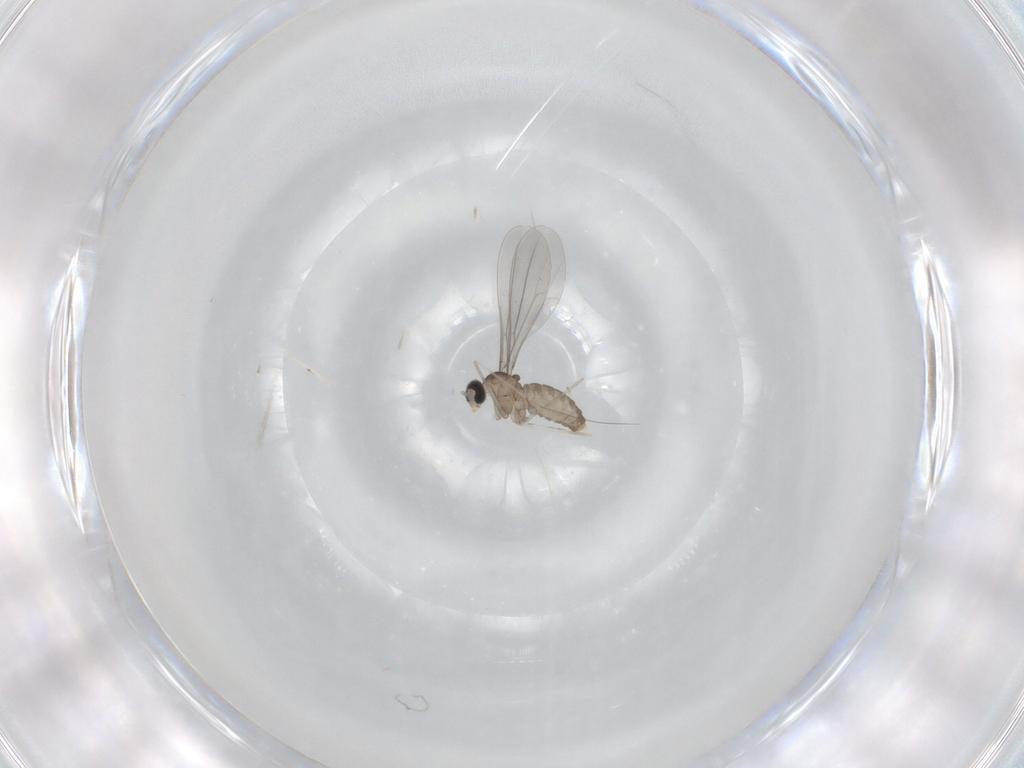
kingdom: Animalia
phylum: Arthropoda
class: Insecta
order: Diptera
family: Cecidomyiidae
